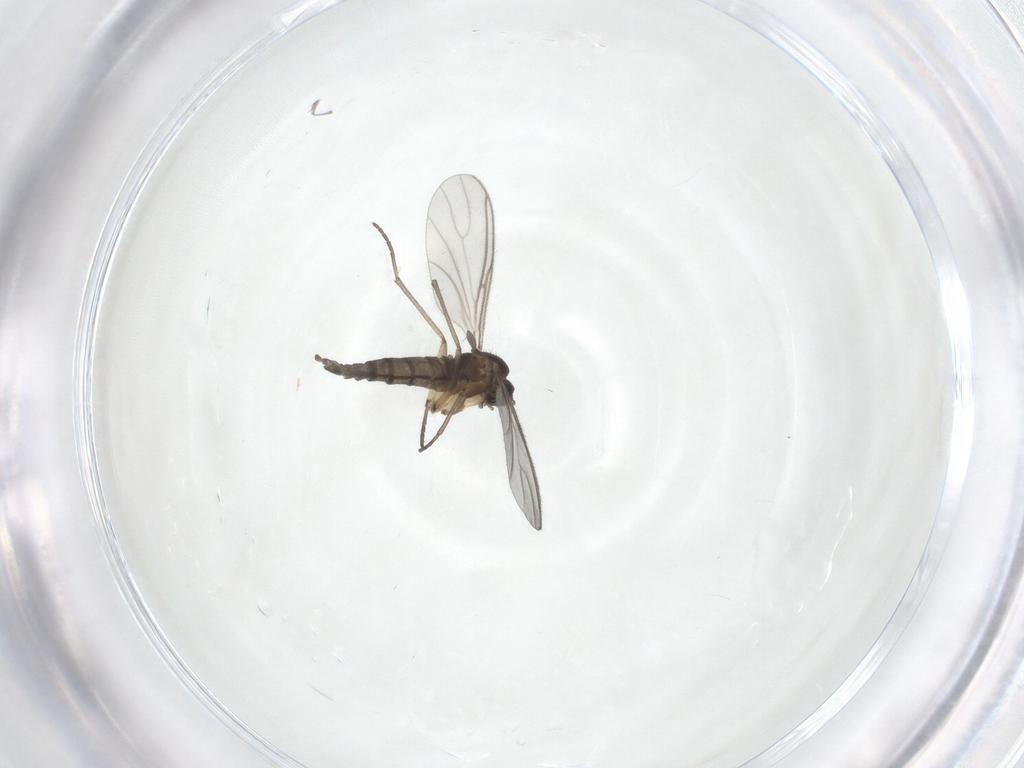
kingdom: Animalia
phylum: Arthropoda
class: Insecta
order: Diptera
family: Sciaridae
